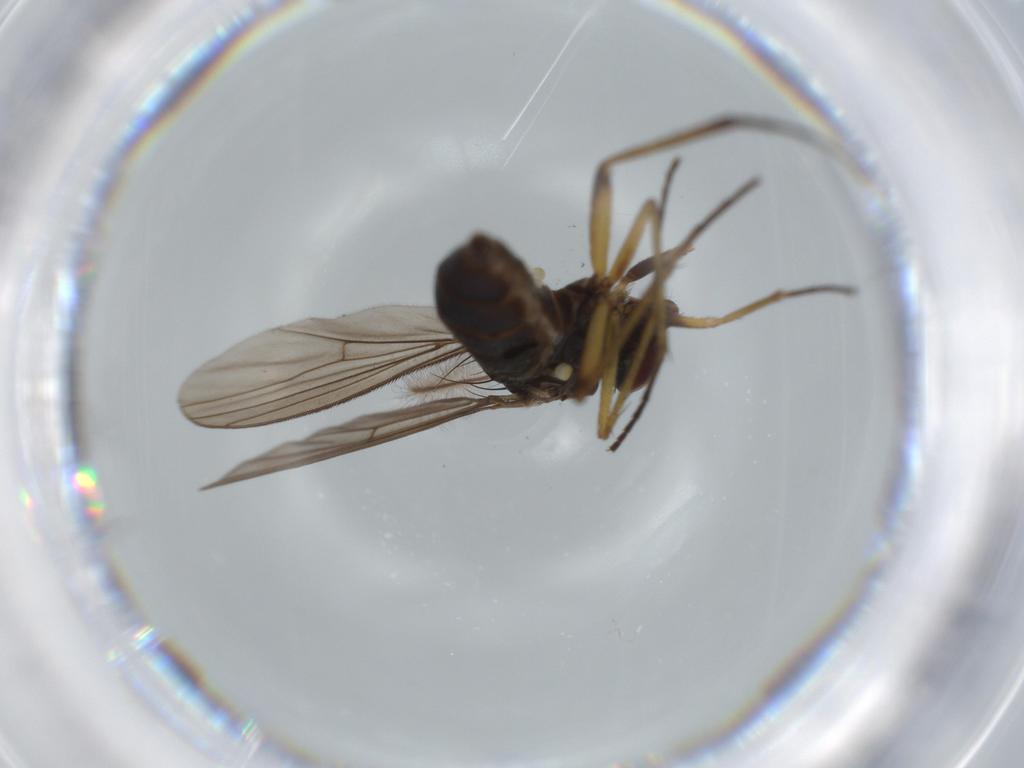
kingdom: Animalia
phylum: Arthropoda
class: Insecta
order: Diptera
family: Dolichopodidae
